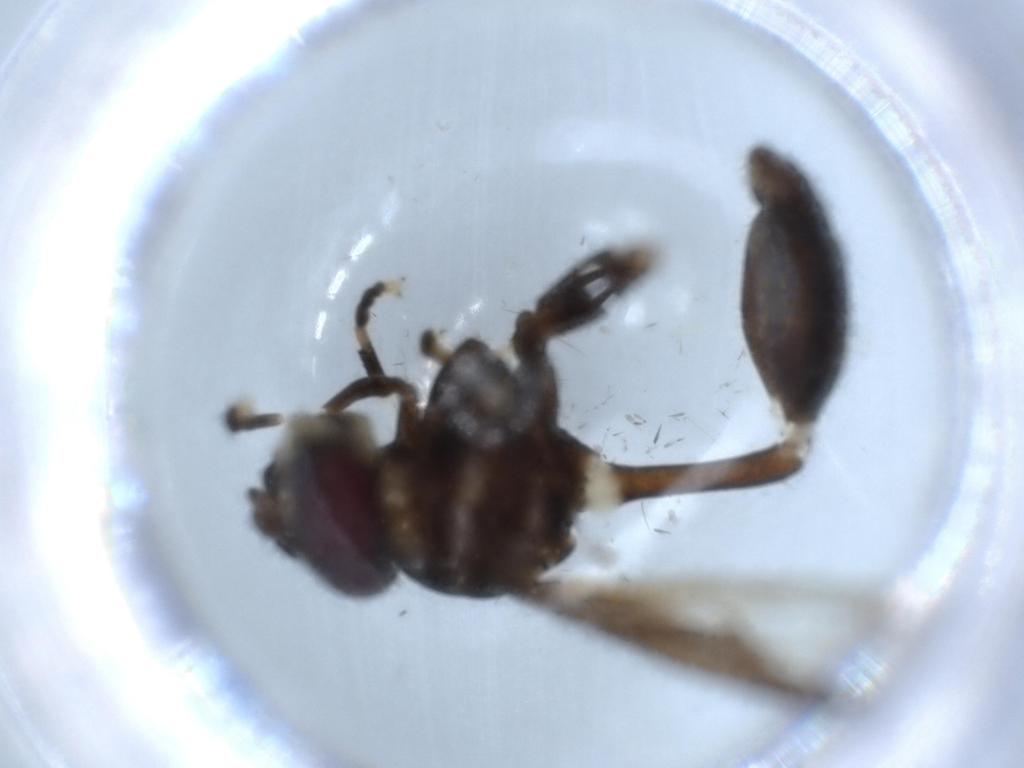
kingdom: Animalia
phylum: Arthropoda
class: Insecta
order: Diptera
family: Syrphidae
